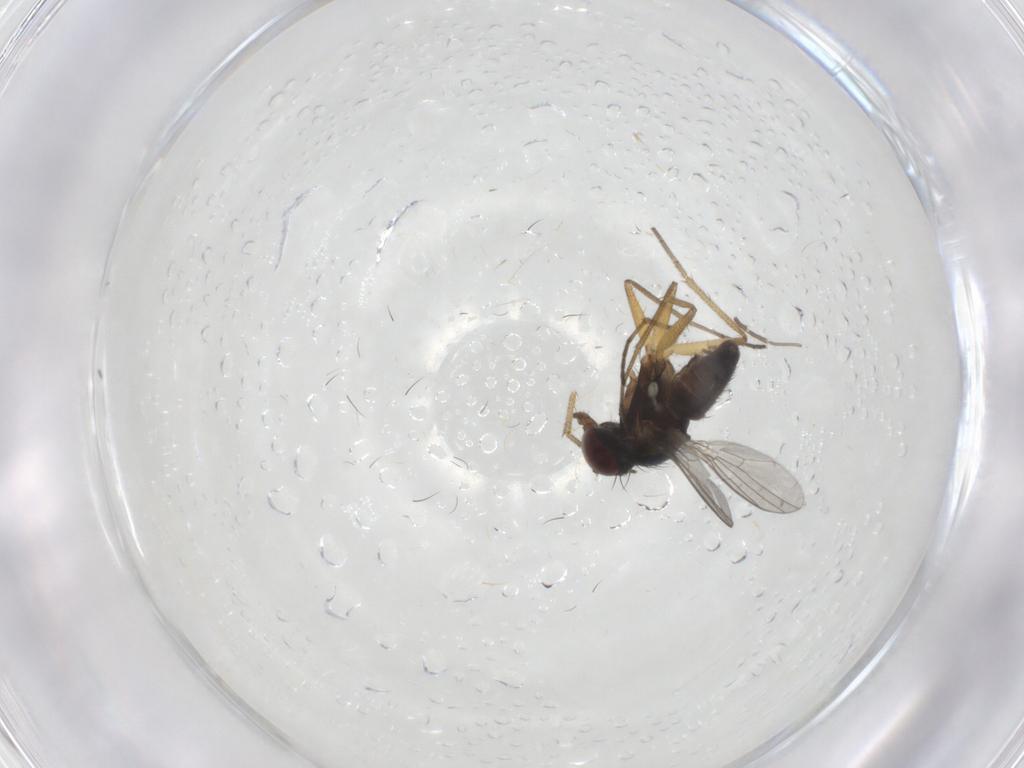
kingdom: Animalia
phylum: Arthropoda
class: Insecta
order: Diptera
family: Dolichopodidae
